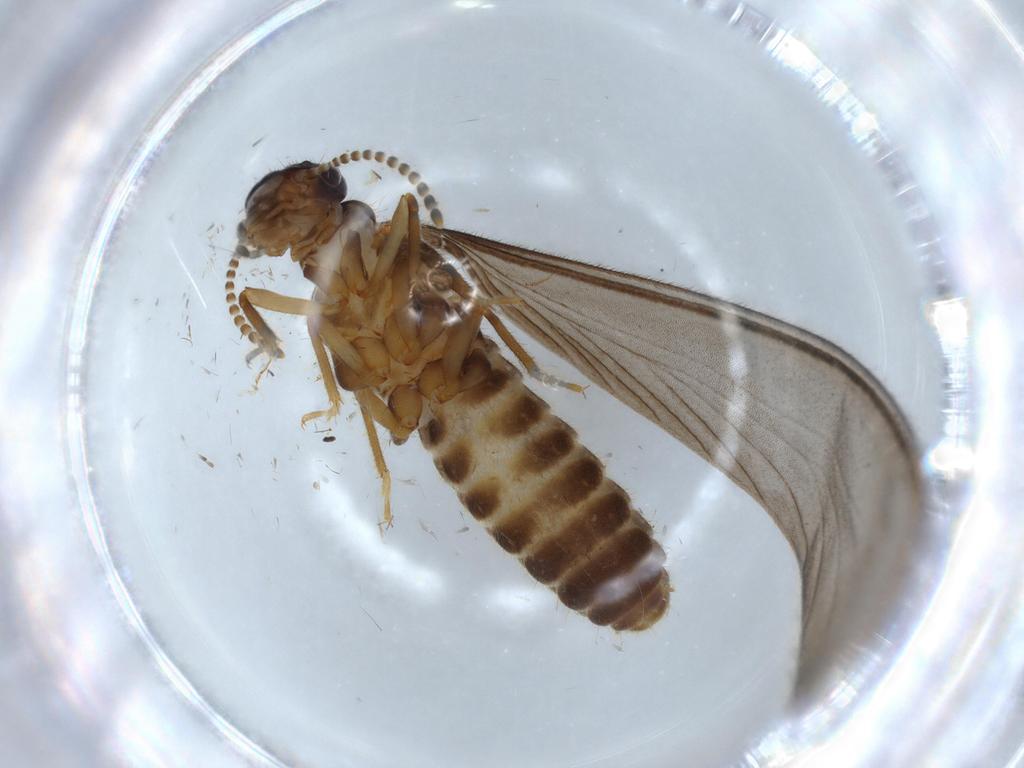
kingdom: Animalia
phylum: Arthropoda
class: Insecta
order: Blattodea
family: Termitidae
